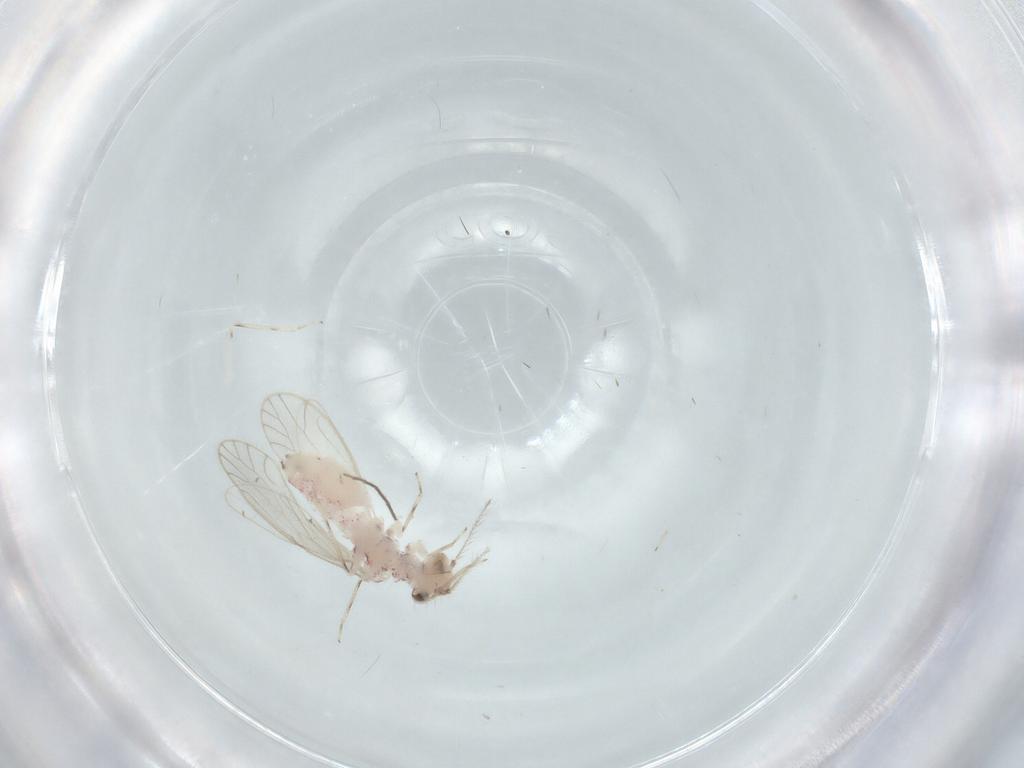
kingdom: Animalia
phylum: Arthropoda
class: Insecta
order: Psocodea
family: Caeciliusidae
